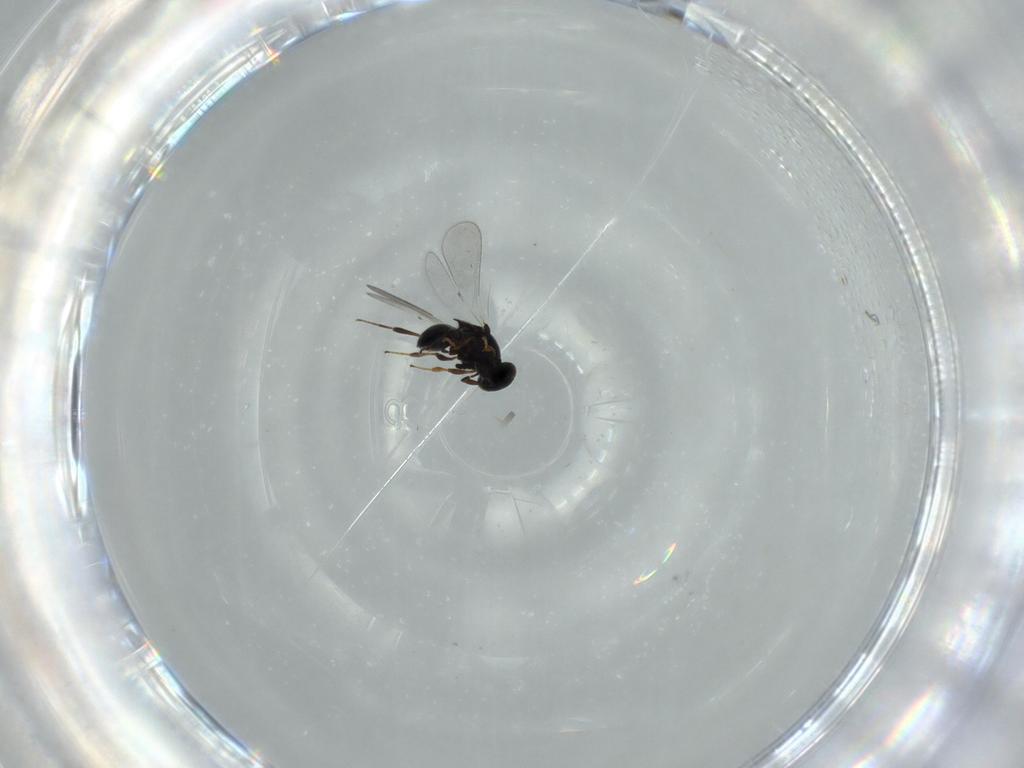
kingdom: Animalia
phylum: Arthropoda
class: Insecta
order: Hymenoptera
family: Platygastridae
